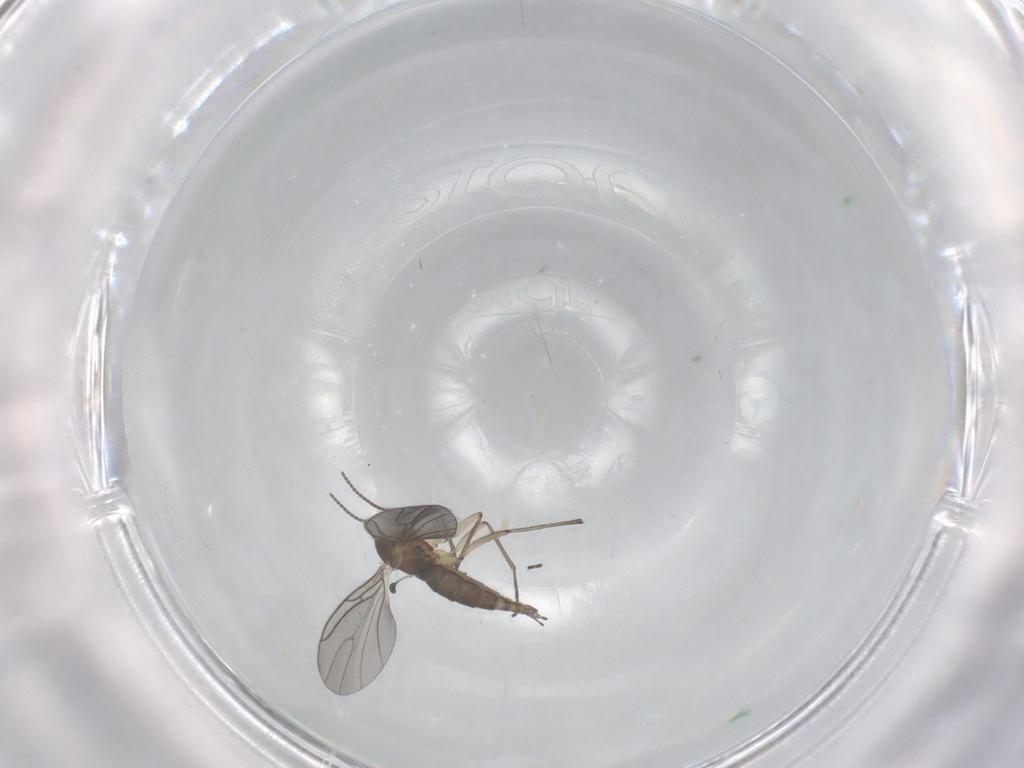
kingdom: Animalia
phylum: Arthropoda
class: Insecta
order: Diptera
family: Sciaridae
